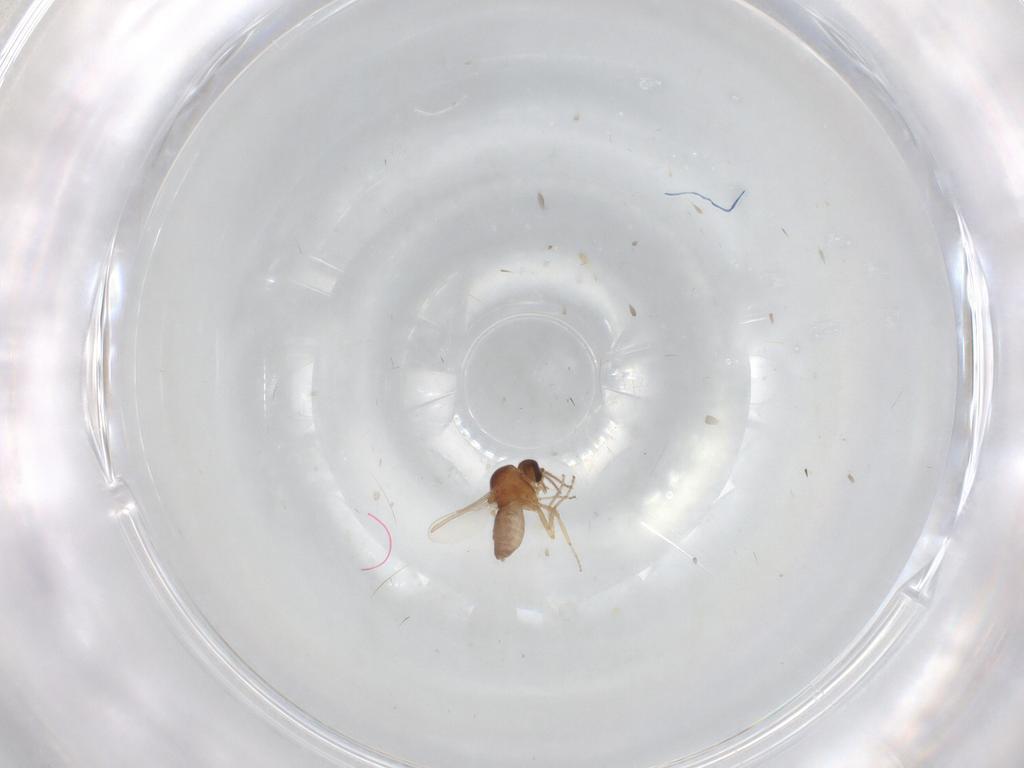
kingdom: Animalia
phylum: Arthropoda
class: Insecta
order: Diptera
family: Ceratopogonidae
